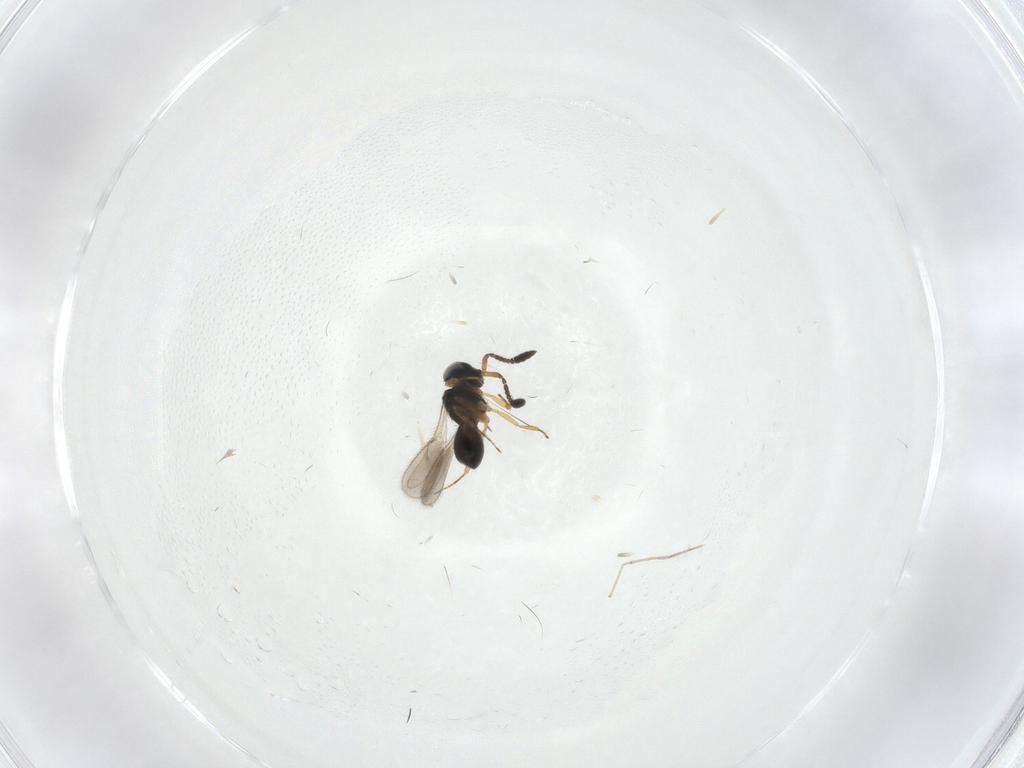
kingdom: Animalia
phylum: Arthropoda
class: Insecta
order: Hymenoptera
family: Scelionidae
